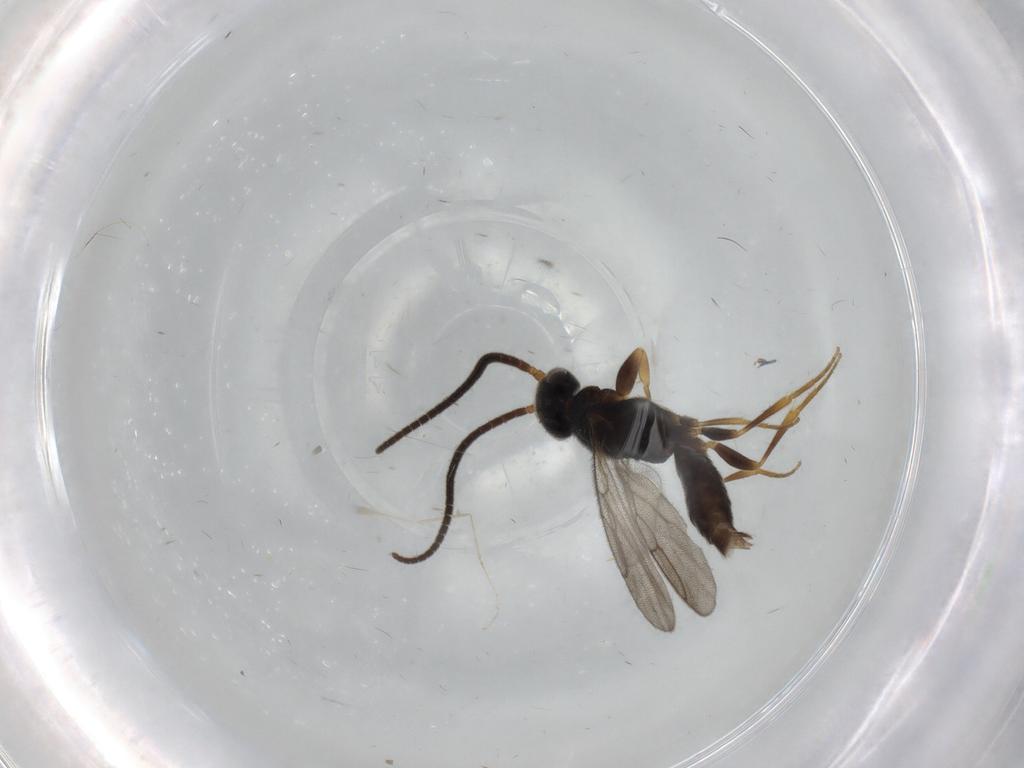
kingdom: Animalia
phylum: Arthropoda
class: Insecta
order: Hymenoptera
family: Sclerogibbidae
